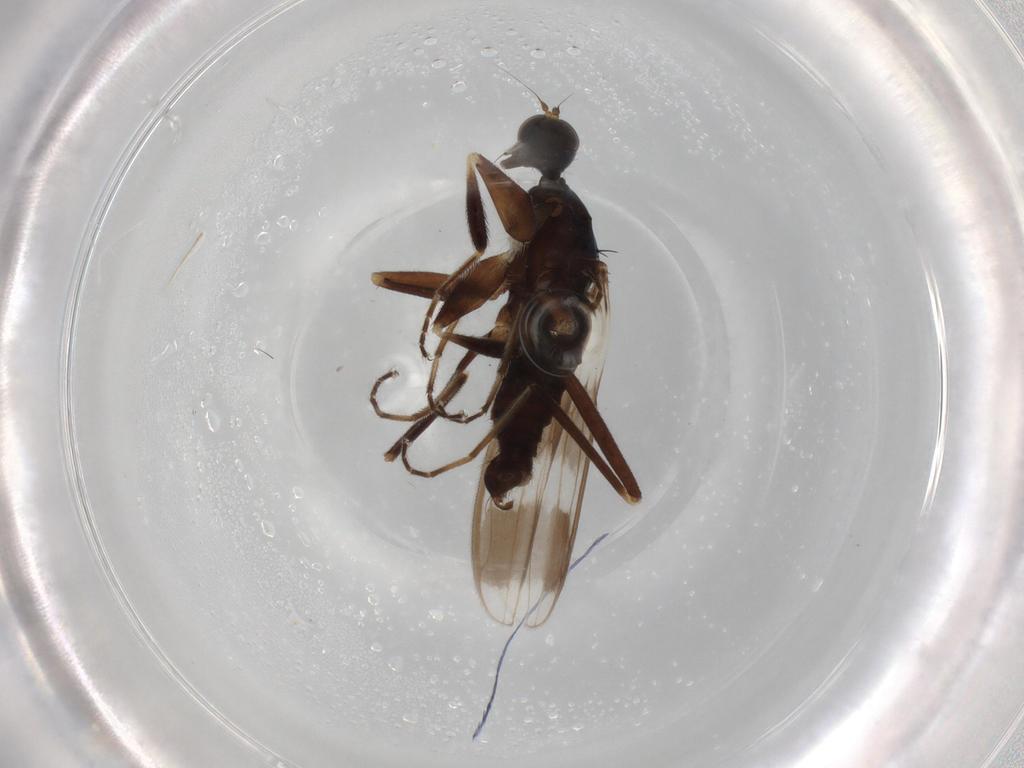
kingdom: Animalia
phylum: Arthropoda
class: Insecta
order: Diptera
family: Hybotidae
